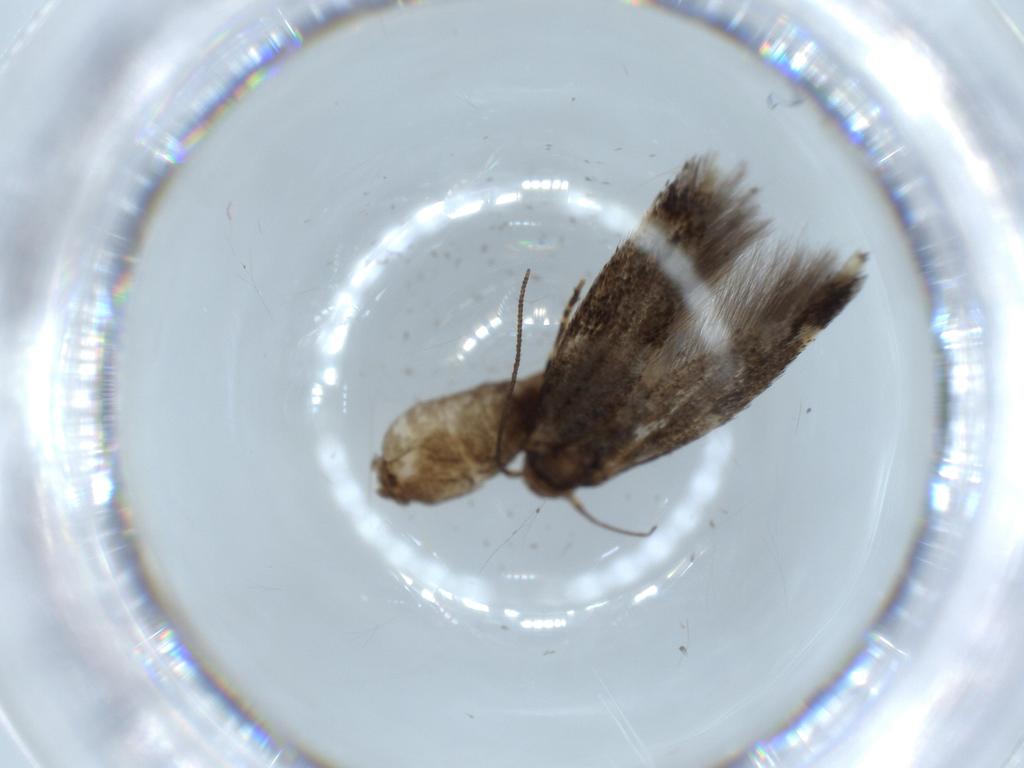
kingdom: Animalia
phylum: Arthropoda
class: Insecta
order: Lepidoptera
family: Elachistidae
